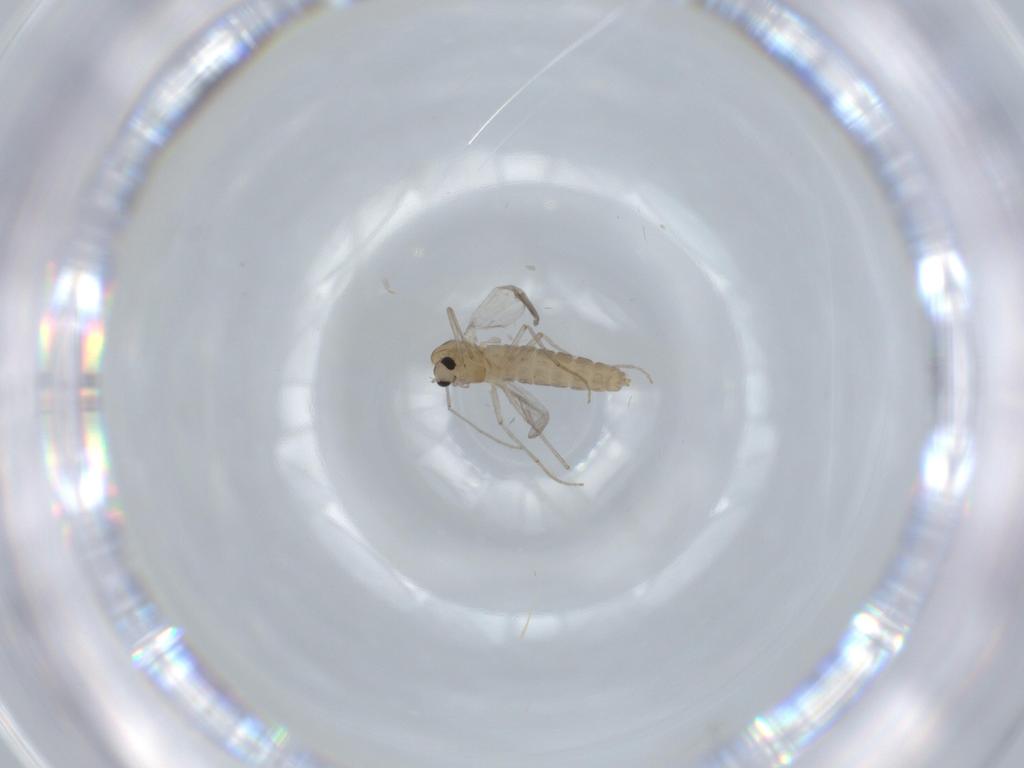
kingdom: Animalia
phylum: Arthropoda
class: Insecta
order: Diptera
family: Chironomidae
